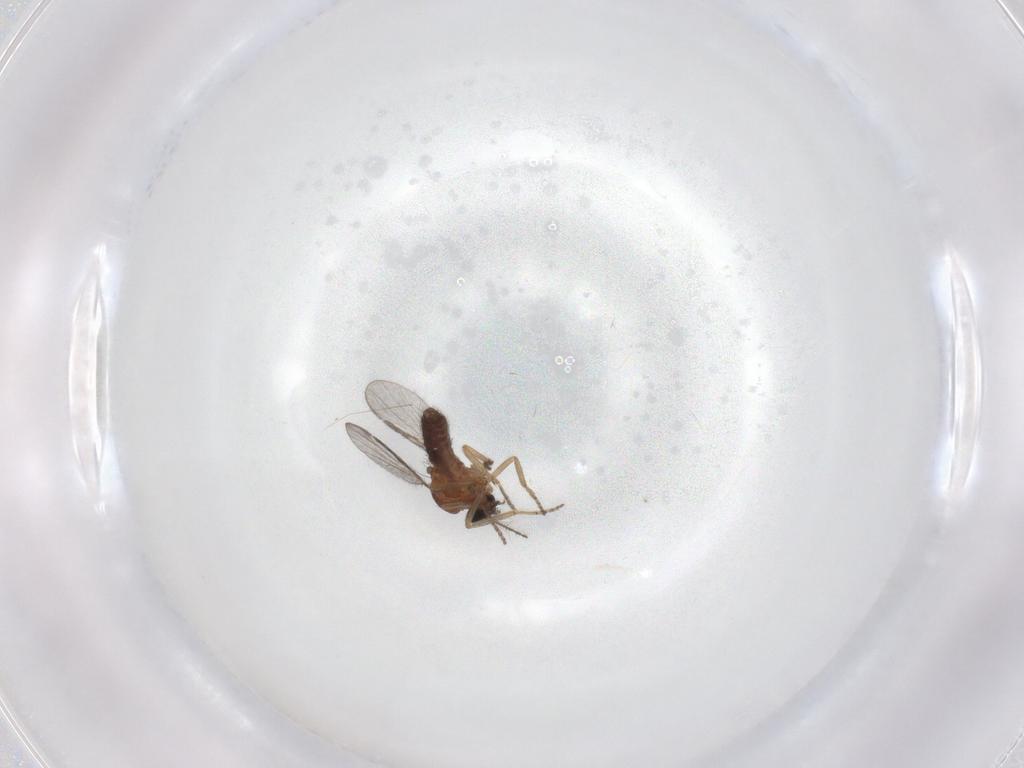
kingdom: Animalia
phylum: Arthropoda
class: Insecta
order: Diptera
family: Ceratopogonidae
